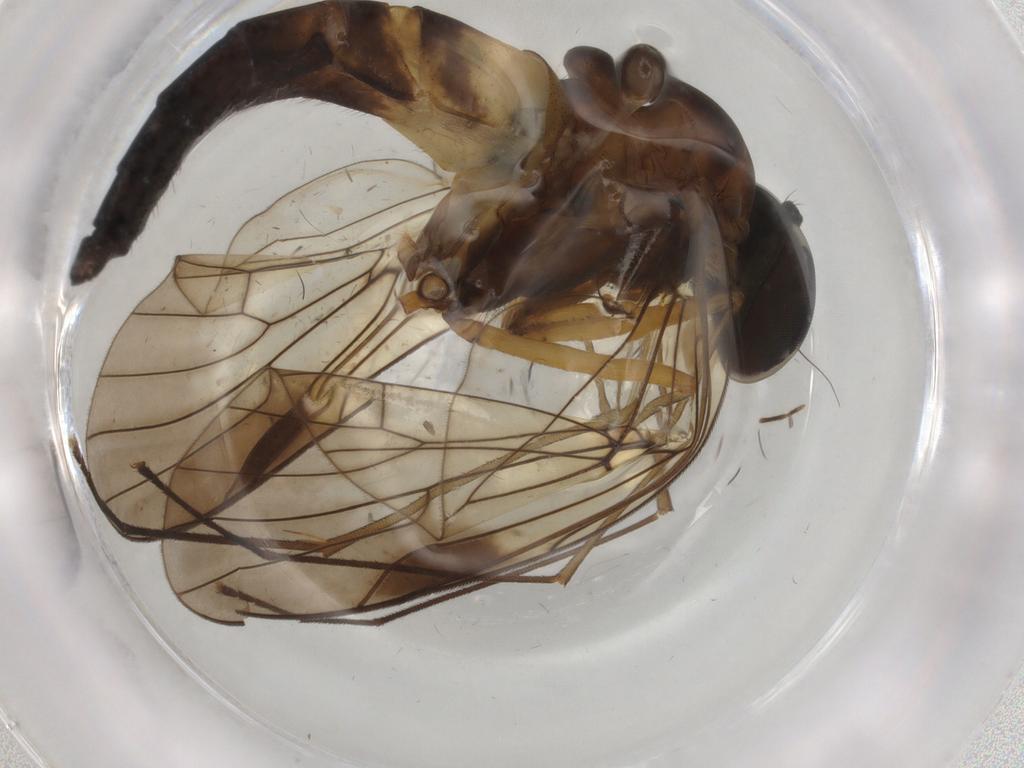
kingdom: Animalia
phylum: Arthropoda
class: Insecta
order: Diptera
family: Sciaridae
